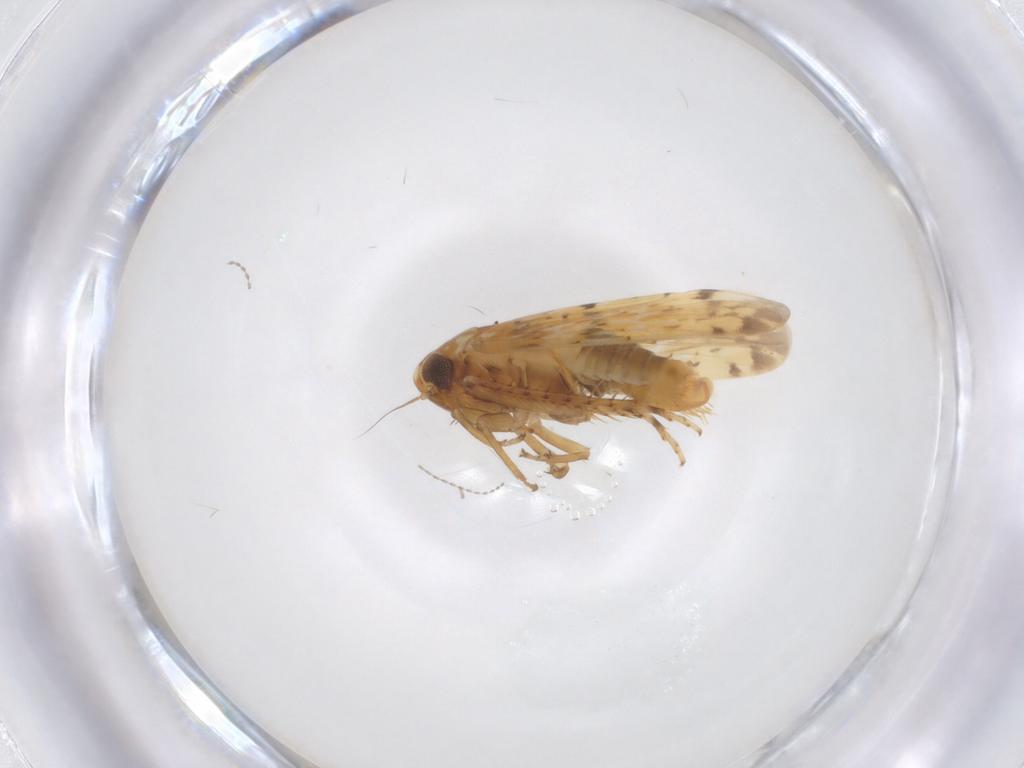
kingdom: Animalia
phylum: Arthropoda
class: Insecta
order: Hemiptera
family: Cicadellidae
